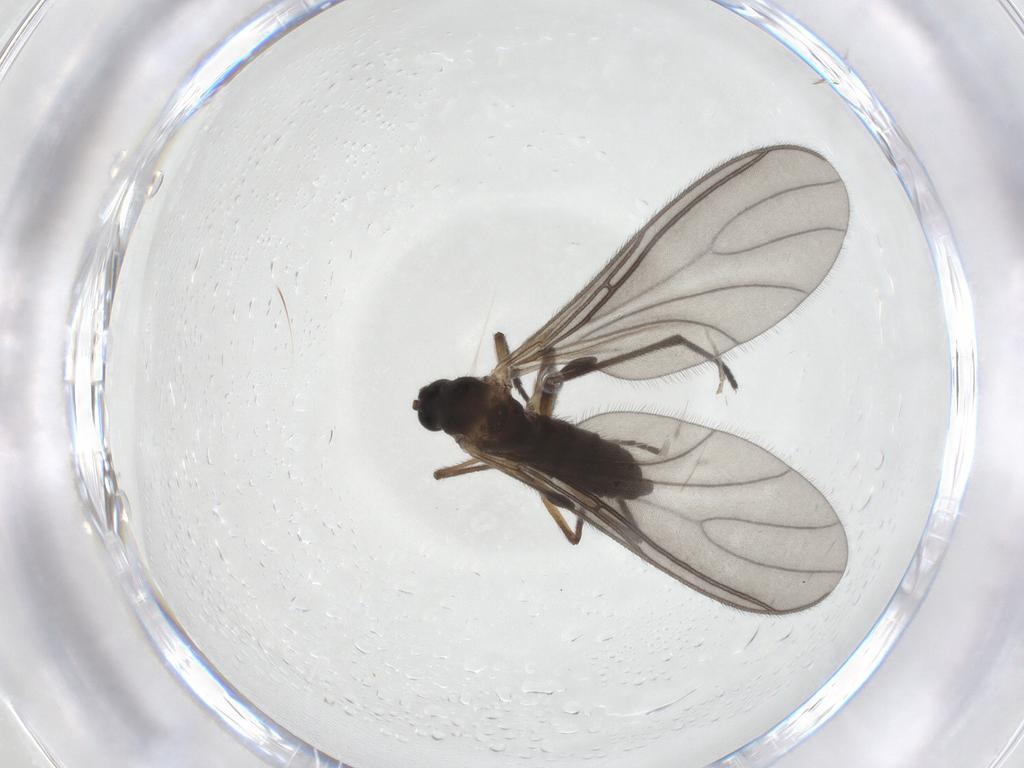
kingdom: Animalia
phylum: Arthropoda
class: Insecta
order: Diptera
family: Sciaridae
